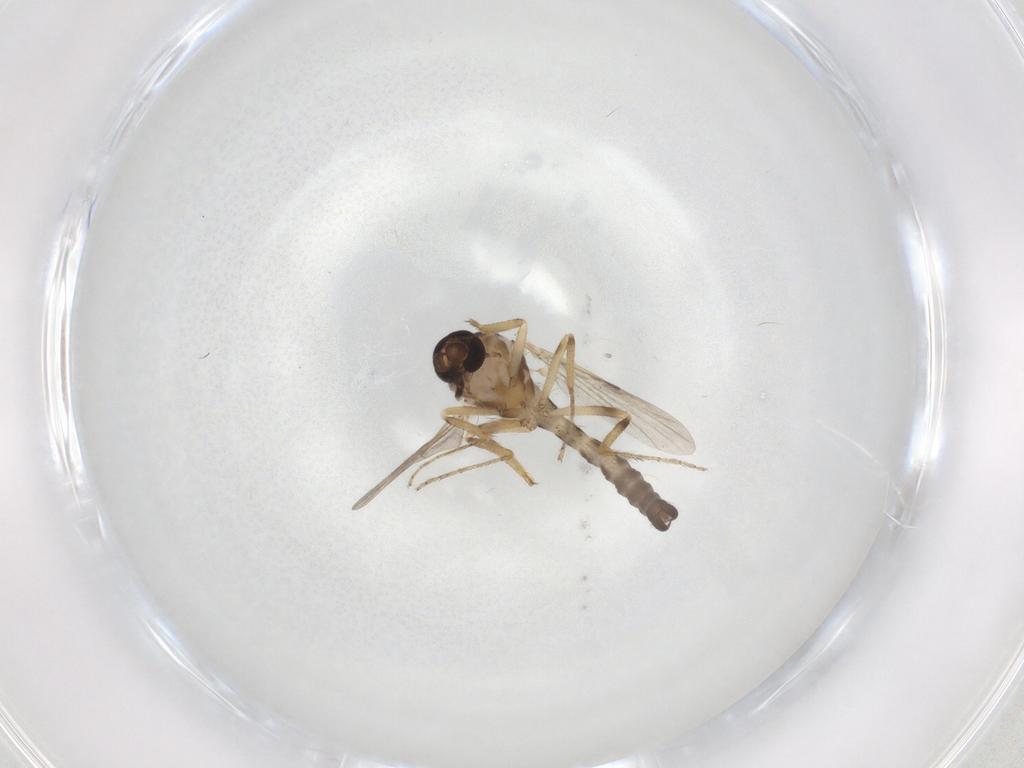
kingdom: Animalia
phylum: Arthropoda
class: Insecta
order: Diptera
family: Ceratopogonidae
